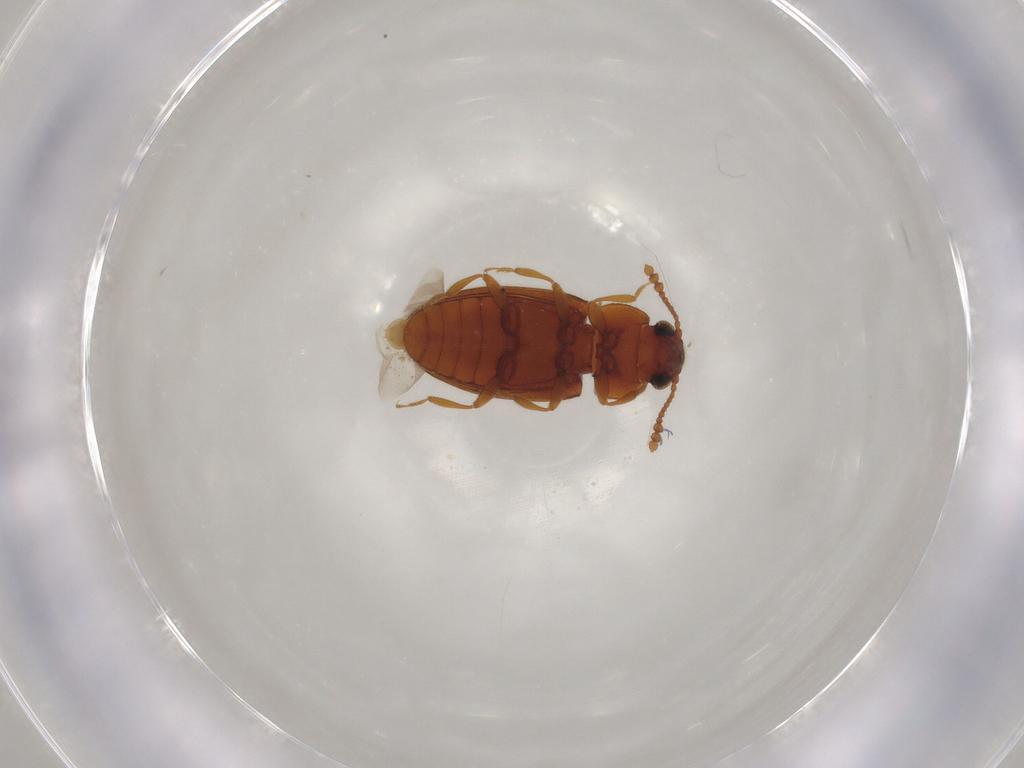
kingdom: Animalia
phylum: Arthropoda
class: Insecta
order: Coleoptera
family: Erotylidae
